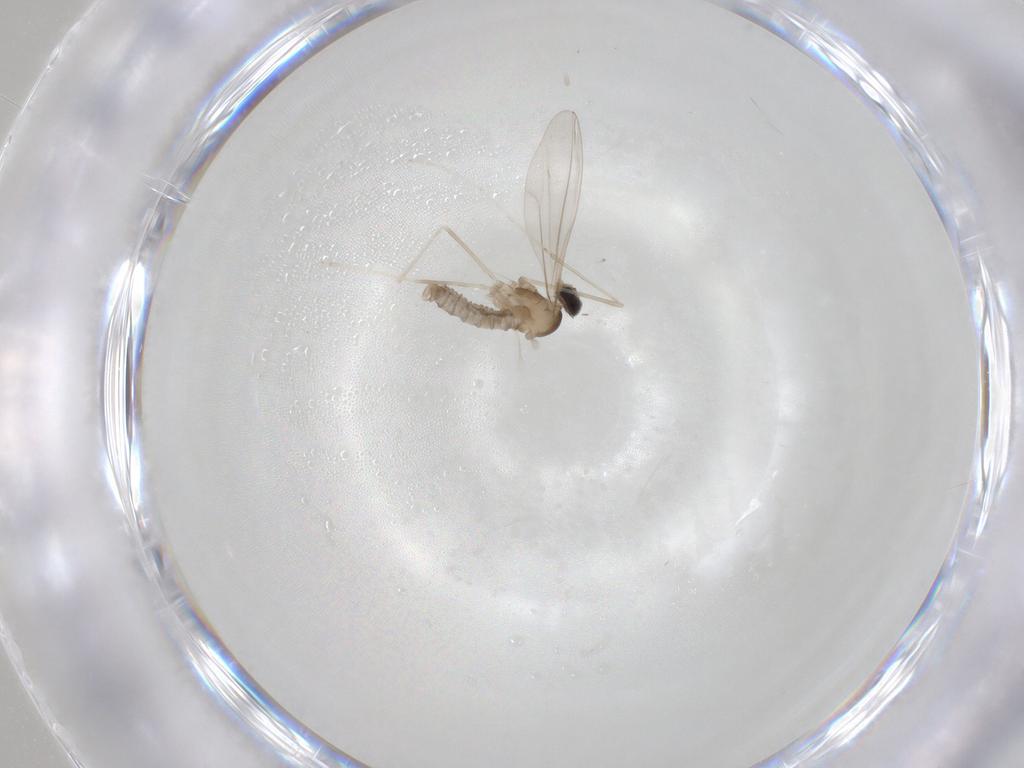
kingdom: Animalia
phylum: Arthropoda
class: Insecta
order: Diptera
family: Cecidomyiidae
